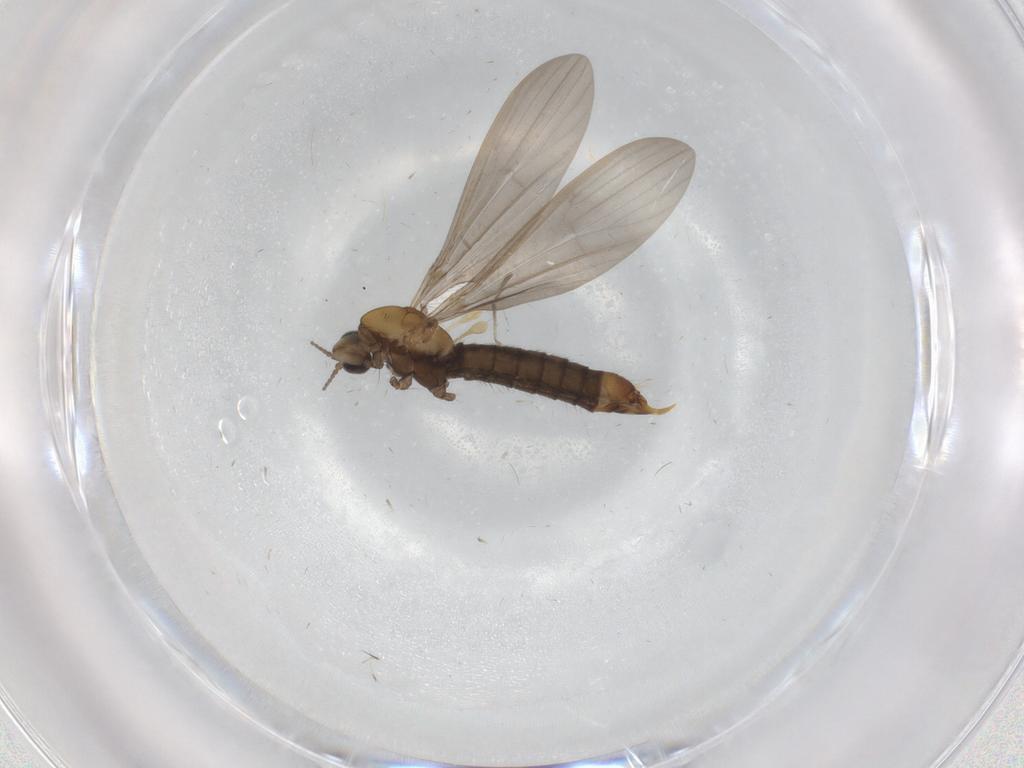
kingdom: Animalia
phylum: Arthropoda
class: Insecta
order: Diptera
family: Limoniidae
